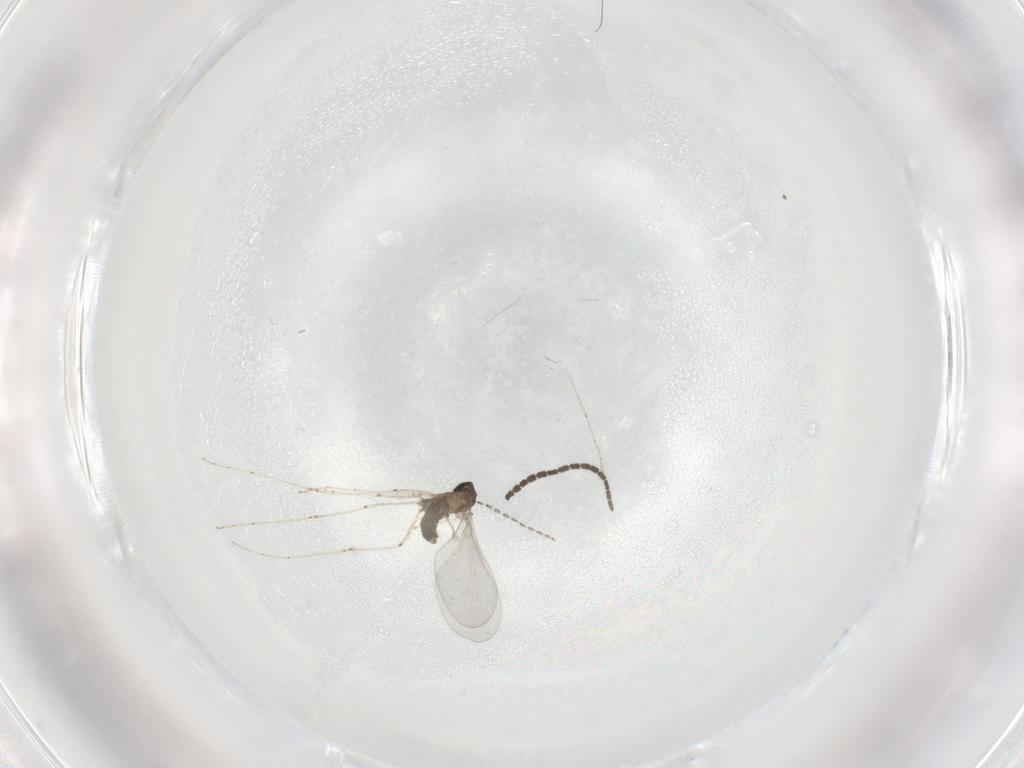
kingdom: Animalia
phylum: Arthropoda
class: Insecta
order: Diptera
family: Cecidomyiidae
